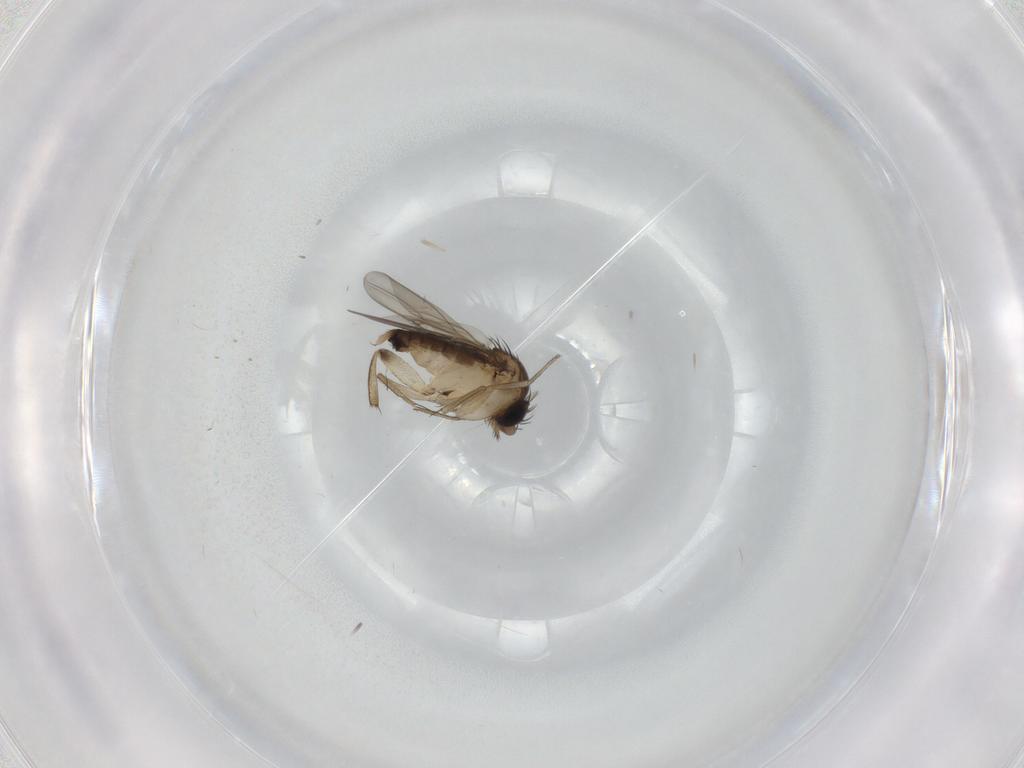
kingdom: Animalia
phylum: Arthropoda
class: Insecta
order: Diptera
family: Phoridae
